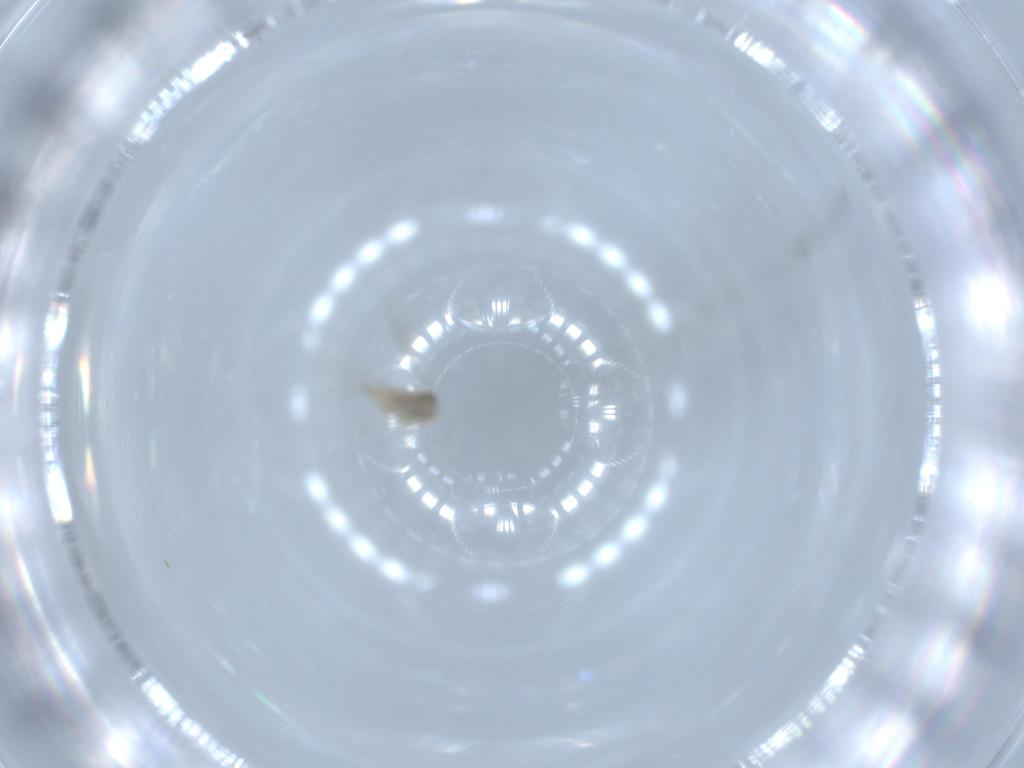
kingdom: Animalia
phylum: Arthropoda
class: Insecta
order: Diptera
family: Cecidomyiidae
